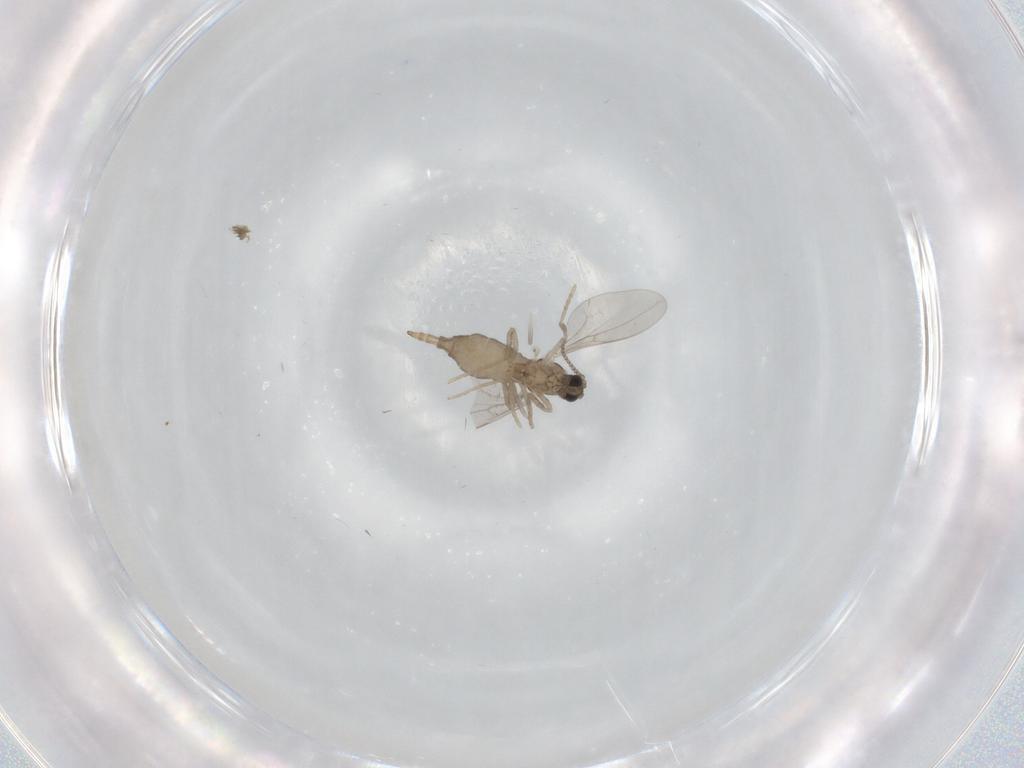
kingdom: Animalia
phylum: Arthropoda
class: Insecta
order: Diptera
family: Cecidomyiidae
